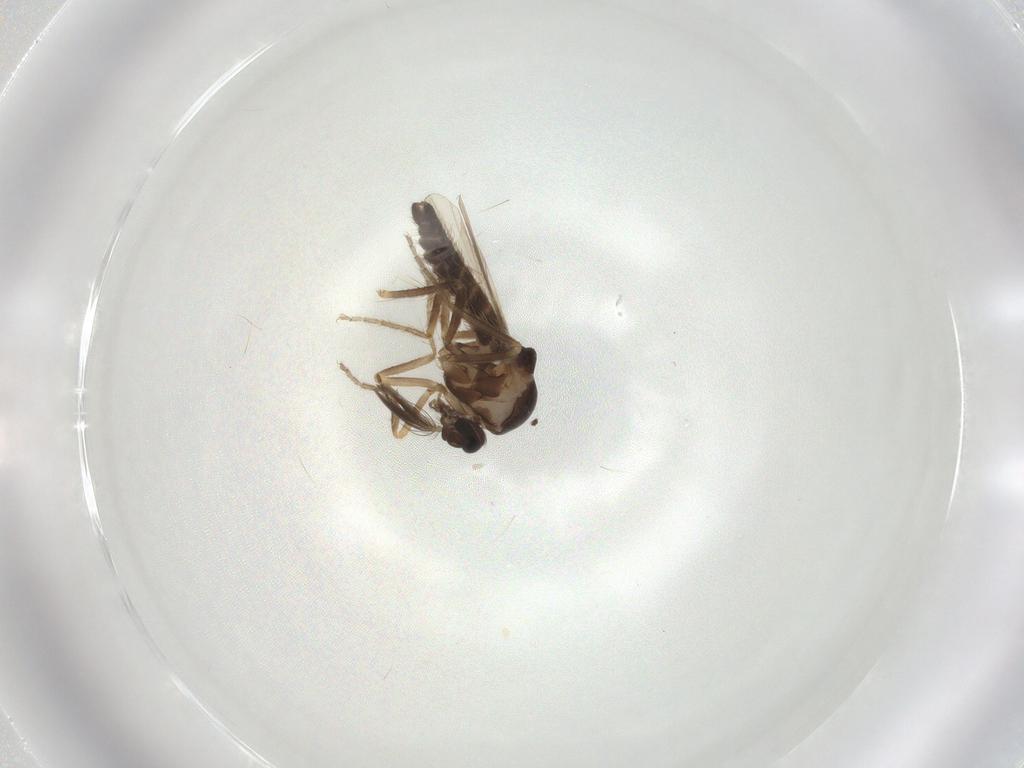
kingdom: Animalia
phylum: Arthropoda
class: Insecta
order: Diptera
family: Ceratopogonidae
